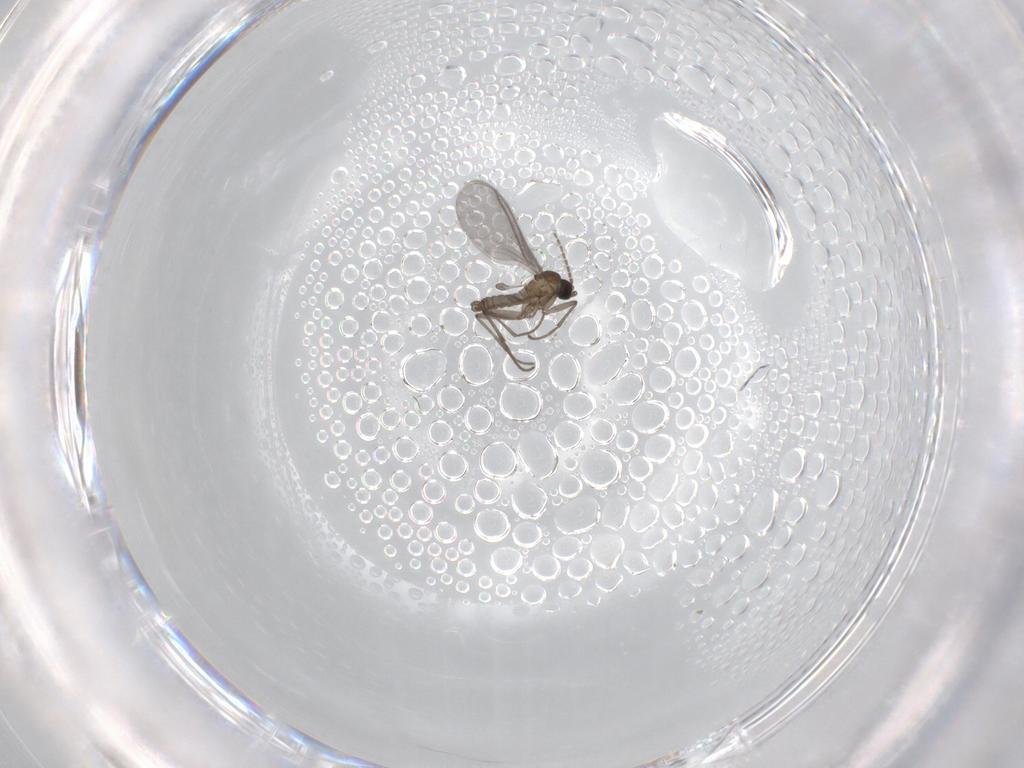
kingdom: Animalia
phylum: Arthropoda
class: Insecta
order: Diptera
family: Sciaridae
